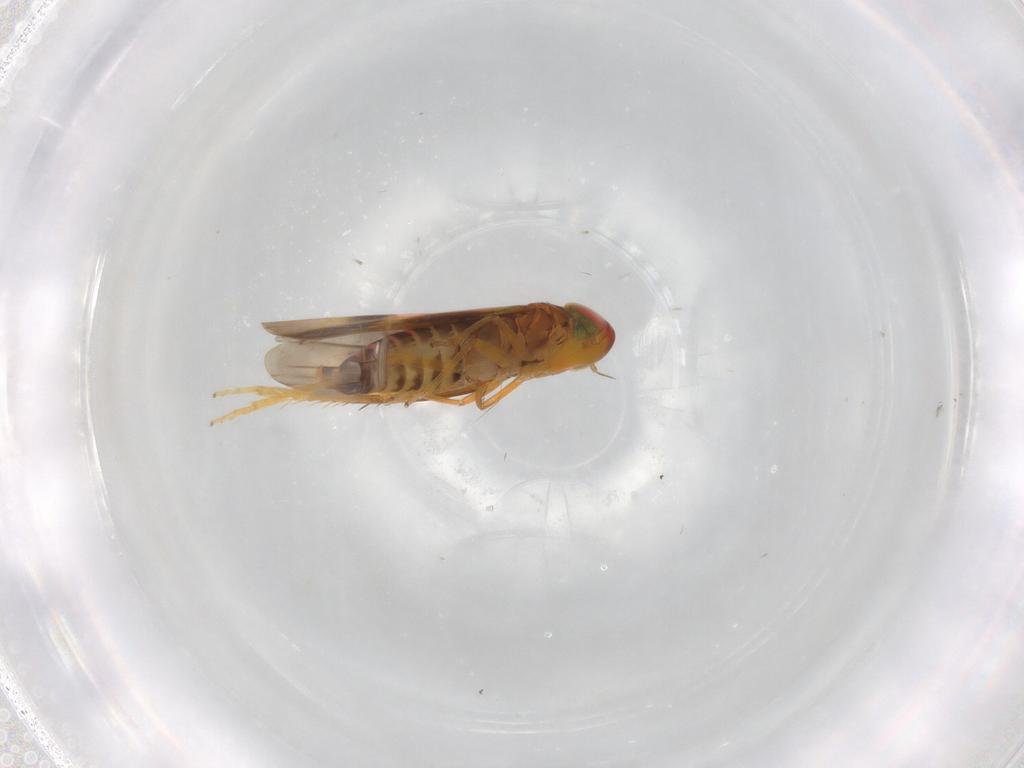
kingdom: Animalia
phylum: Arthropoda
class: Insecta
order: Hemiptera
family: Cicadellidae
